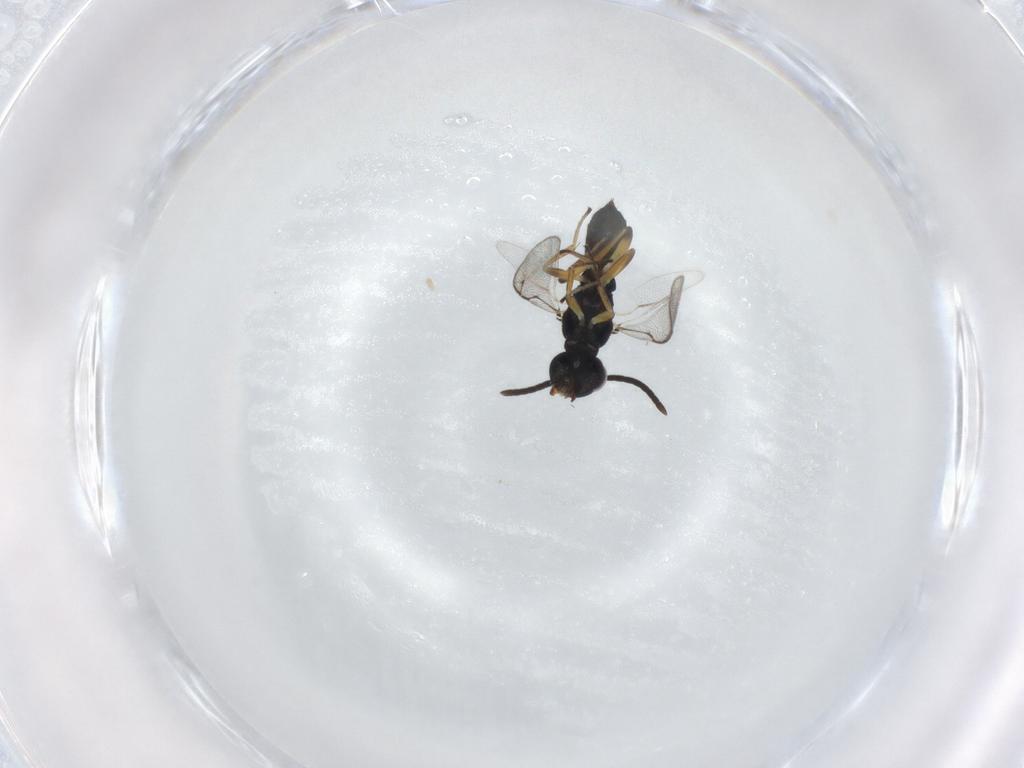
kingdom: Animalia
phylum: Arthropoda
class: Insecta
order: Hymenoptera
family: Eupelmidae
